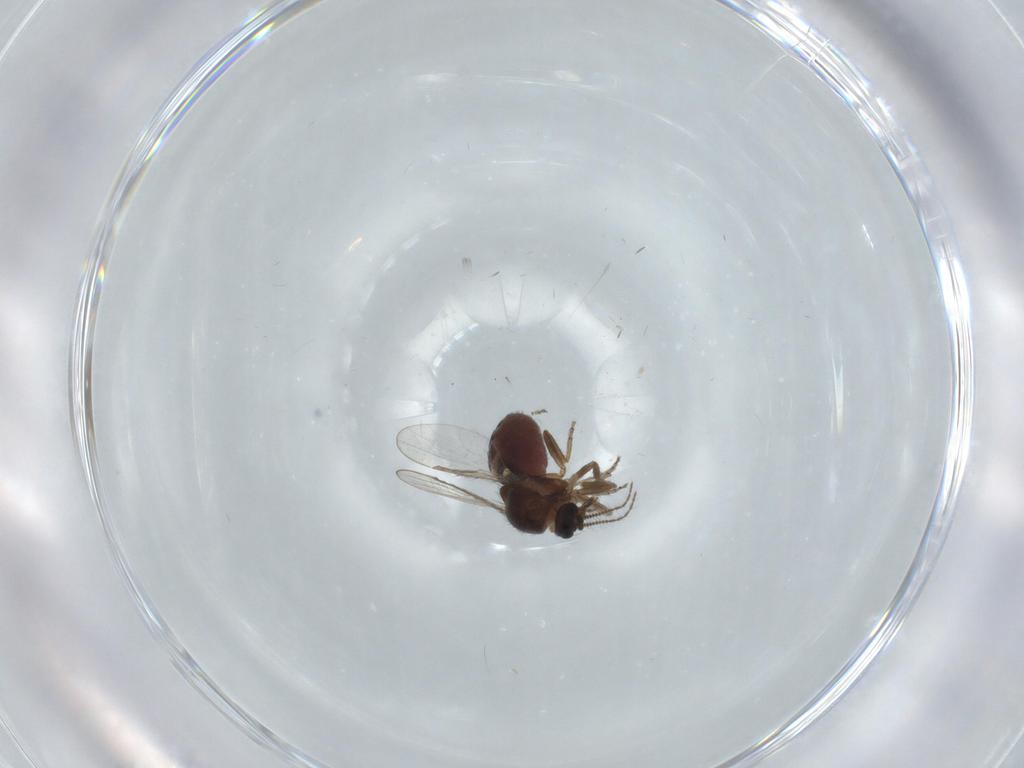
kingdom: Animalia
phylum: Arthropoda
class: Insecta
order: Diptera
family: Ceratopogonidae
